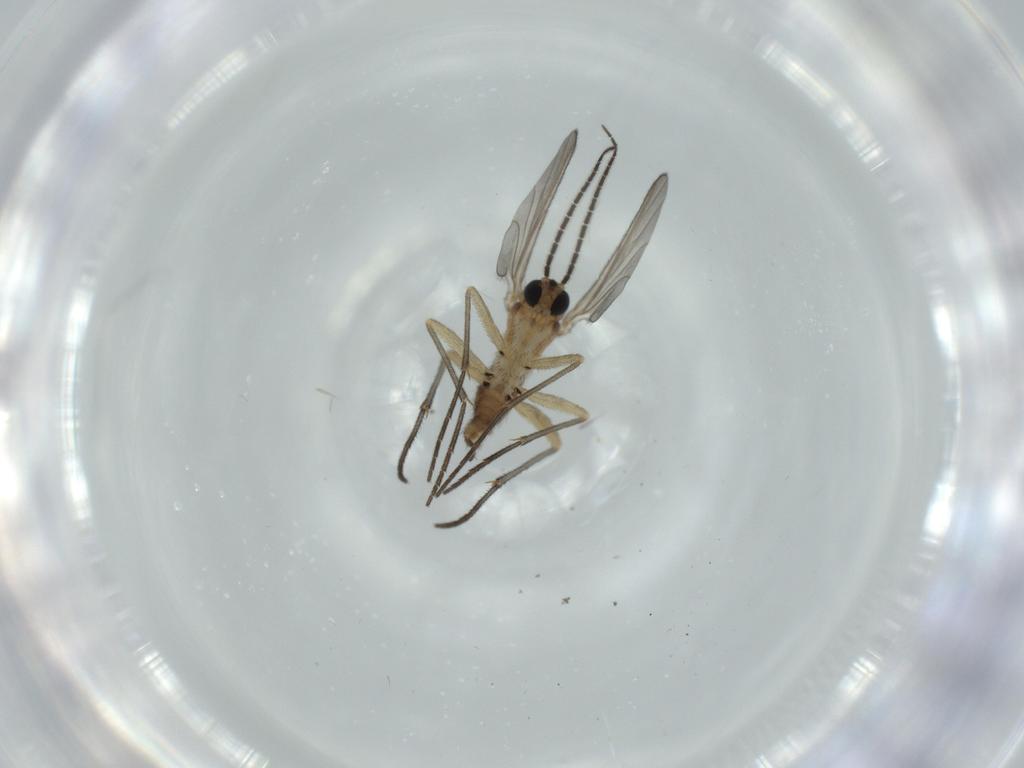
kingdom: Animalia
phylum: Arthropoda
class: Insecta
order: Diptera
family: Sciaridae
